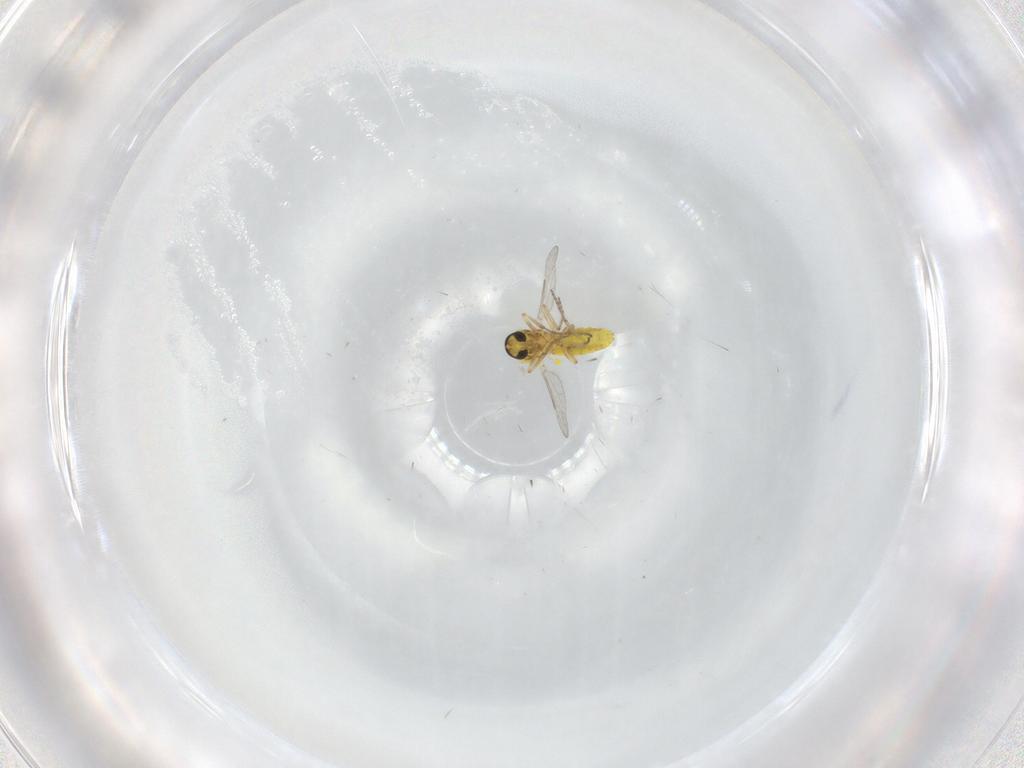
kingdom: Animalia
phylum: Arthropoda
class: Insecta
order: Diptera
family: Ceratopogonidae
